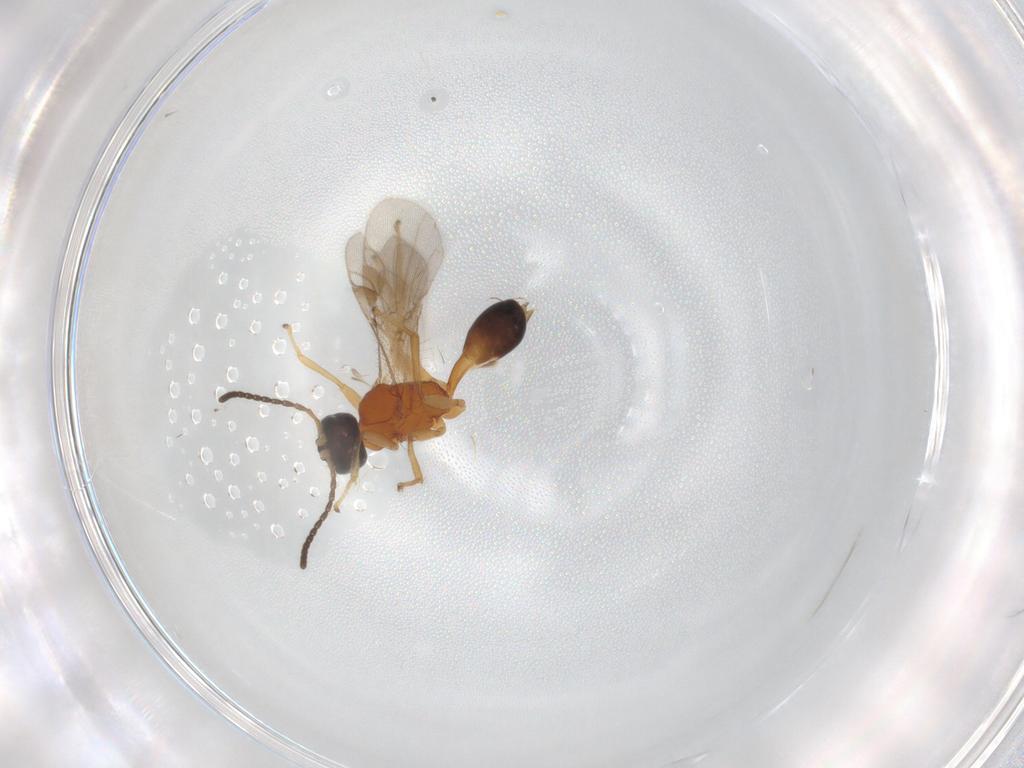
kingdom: Animalia
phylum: Arthropoda
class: Insecta
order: Hymenoptera
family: Braconidae
